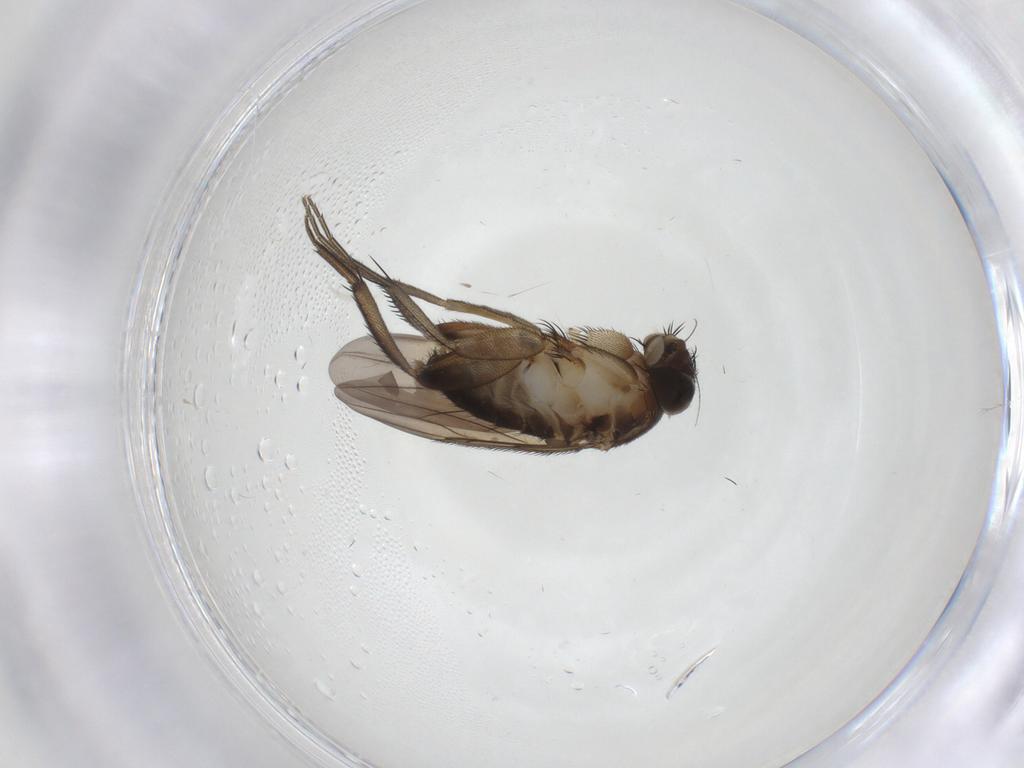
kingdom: Animalia
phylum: Arthropoda
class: Insecta
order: Diptera
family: Phoridae
